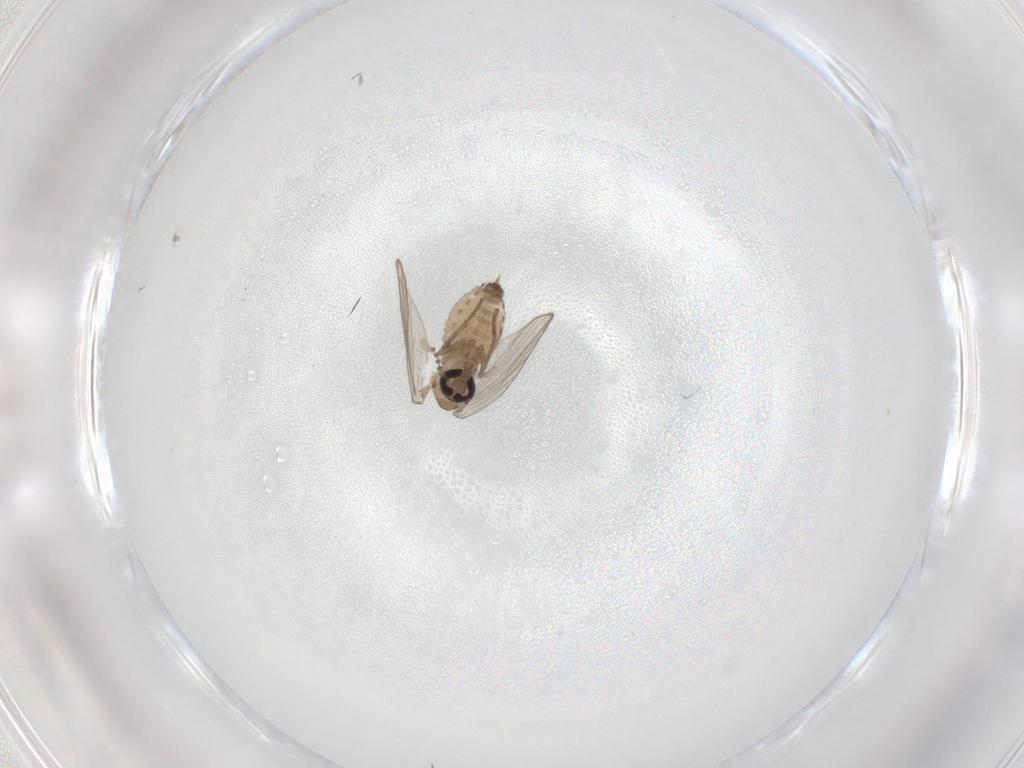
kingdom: Animalia
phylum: Arthropoda
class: Insecta
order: Diptera
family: Psychodidae
